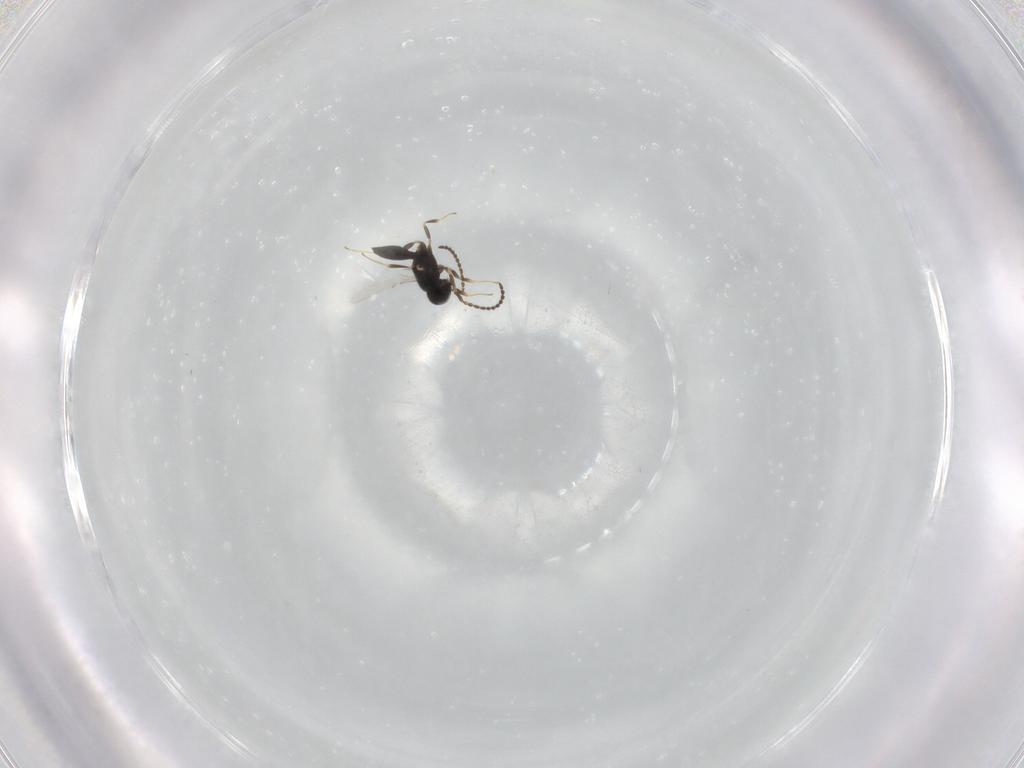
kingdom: Animalia
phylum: Arthropoda
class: Insecta
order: Hymenoptera
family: Scelionidae
